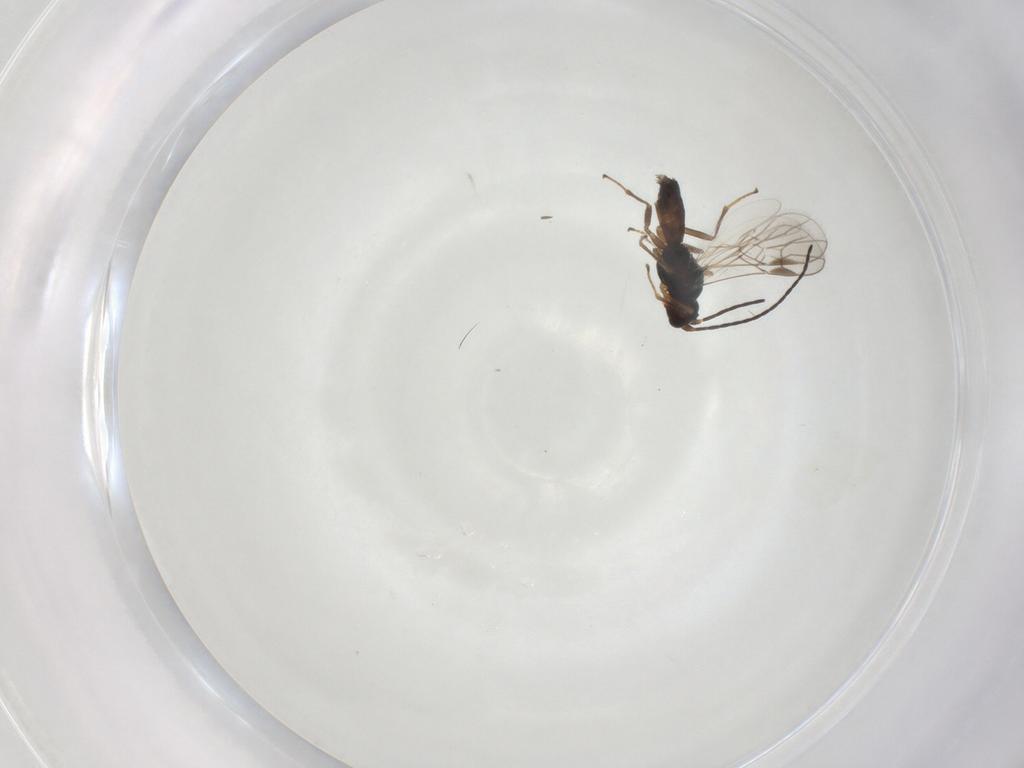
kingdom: Animalia
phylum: Arthropoda
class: Insecta
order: Hymenoptera
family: Braconidae
